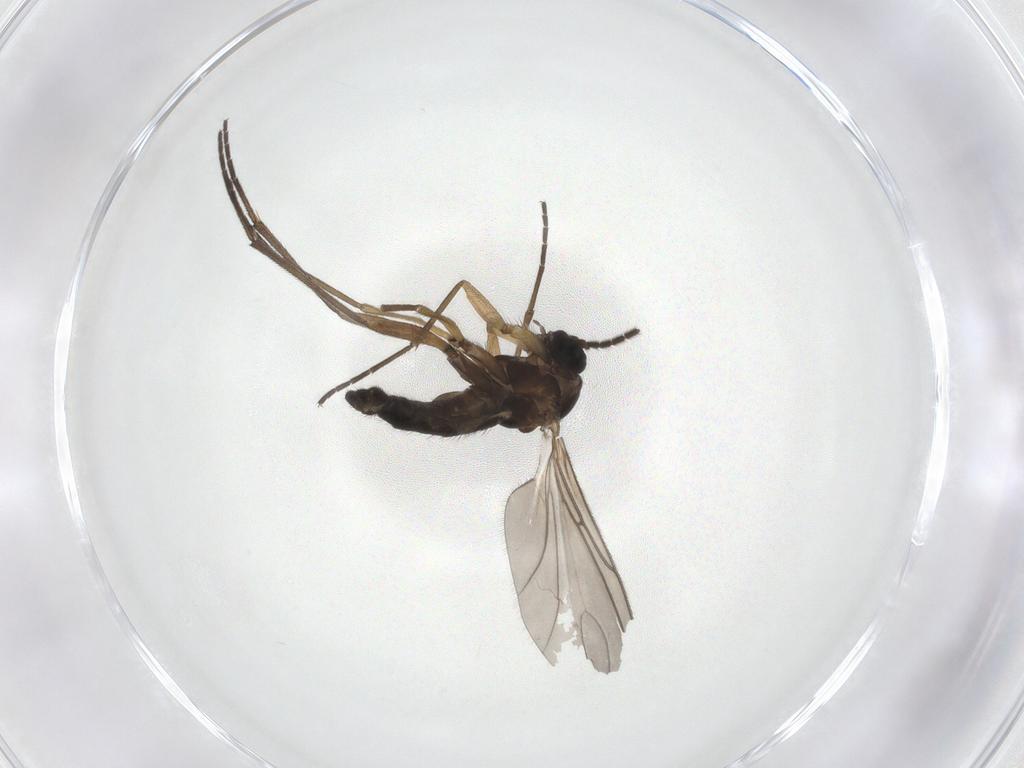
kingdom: Animalia
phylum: Arthropoda
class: Insecta
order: Diptera
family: Sciaridae
